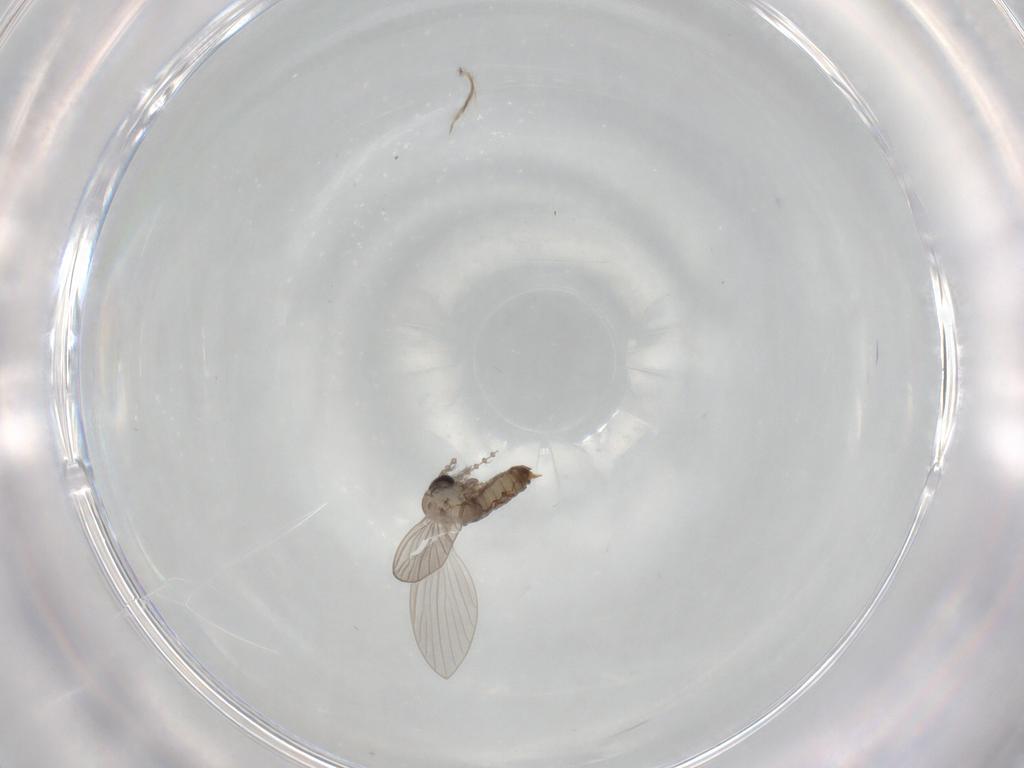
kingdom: Animalia
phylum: Arthropoda
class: Insecta
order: Diptera
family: Psychodidae
